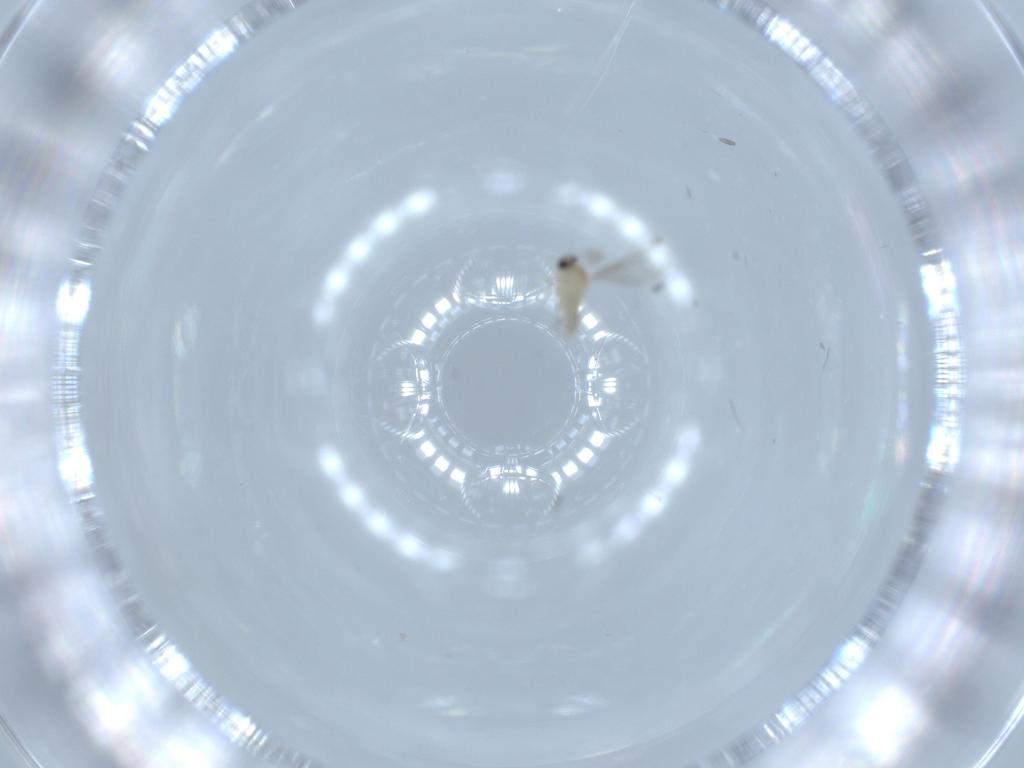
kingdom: Animalia
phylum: Arthropoda
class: Insecta
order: Diptera
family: Cecidomyiidae
